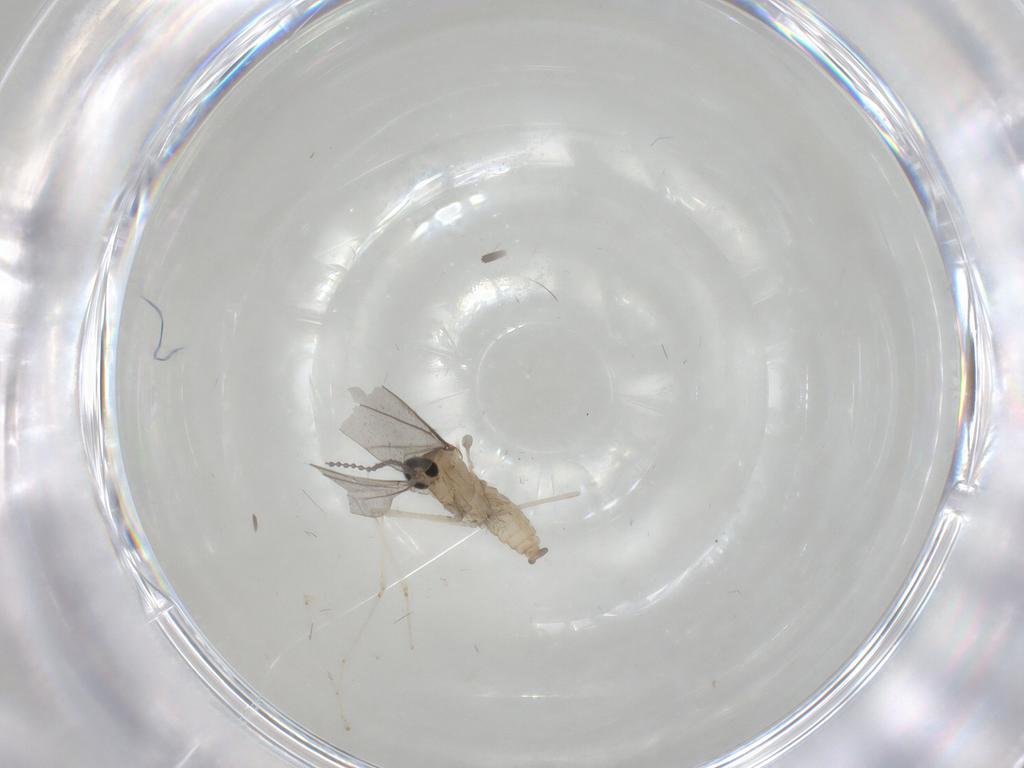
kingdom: Animalia
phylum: Arthropoda
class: Insecta
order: Diptera
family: Cecidomyiidae
